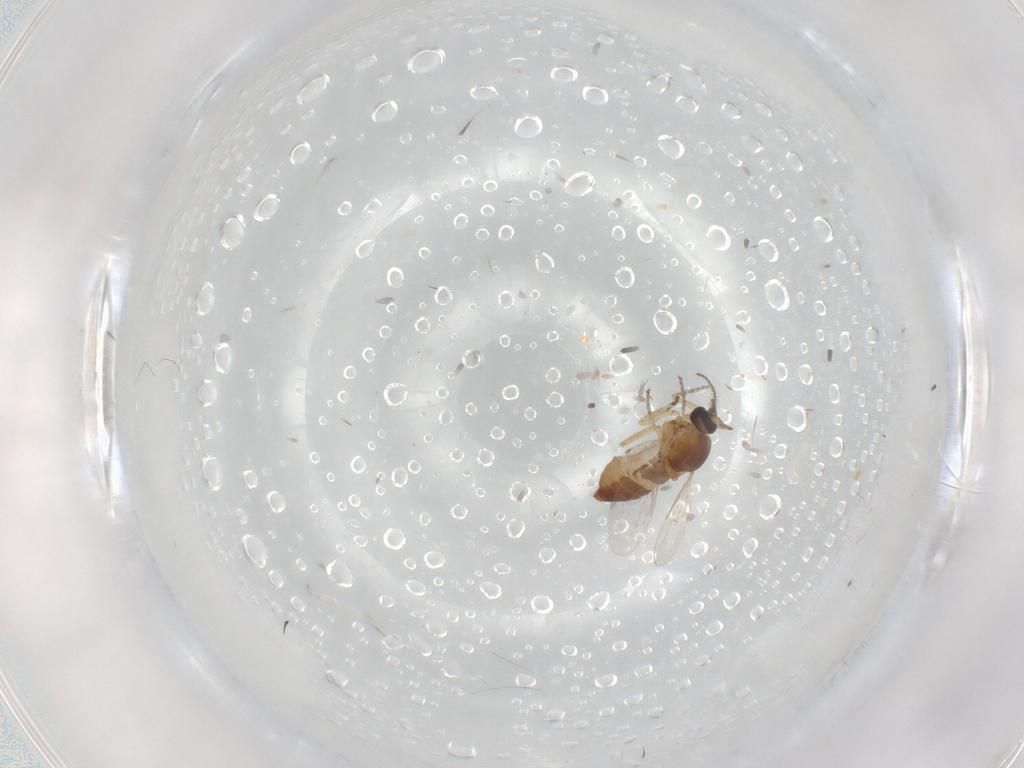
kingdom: Animalia
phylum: Arthropoda
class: Insecta
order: Diptera
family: Ceratopogonidae
